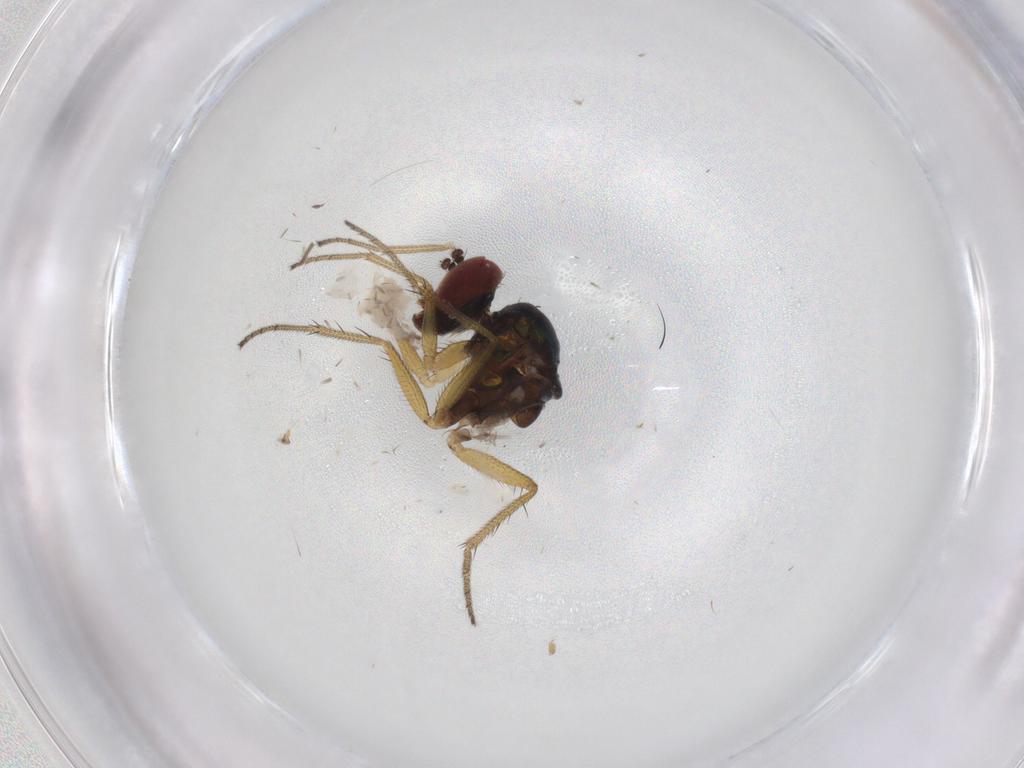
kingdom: Animalia
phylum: Arthropoda
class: Insecta
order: Diptera
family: Micropezidae
